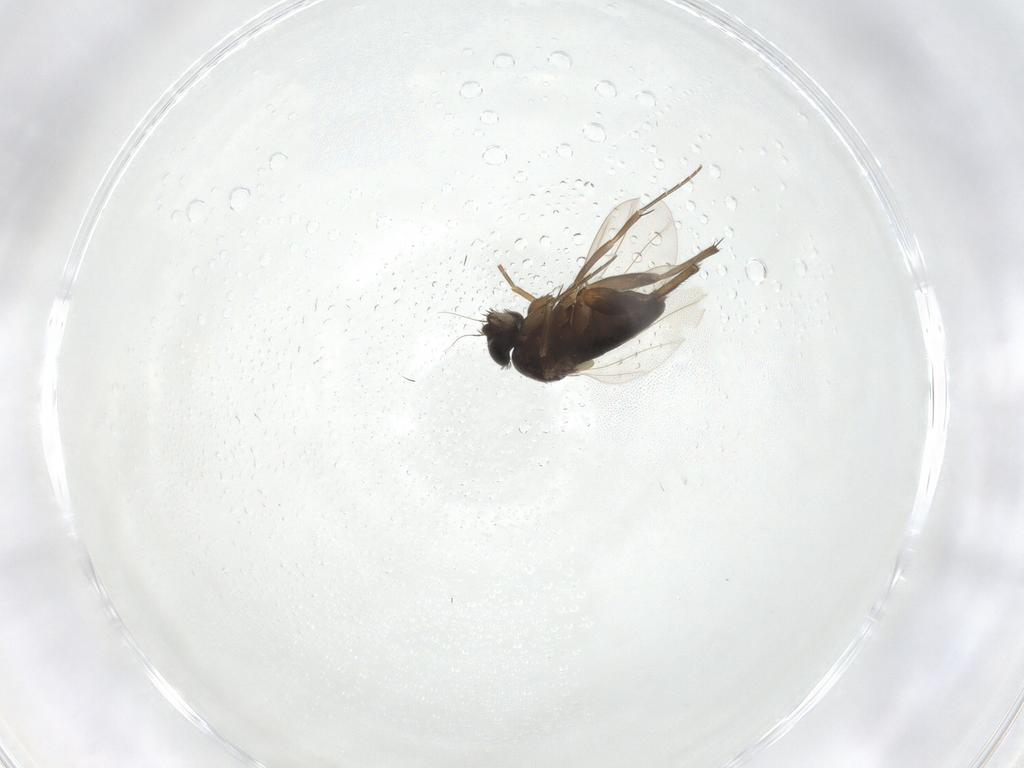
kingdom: Animalia
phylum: Arthropoda
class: Insecta
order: Diptera
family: Phoridae
